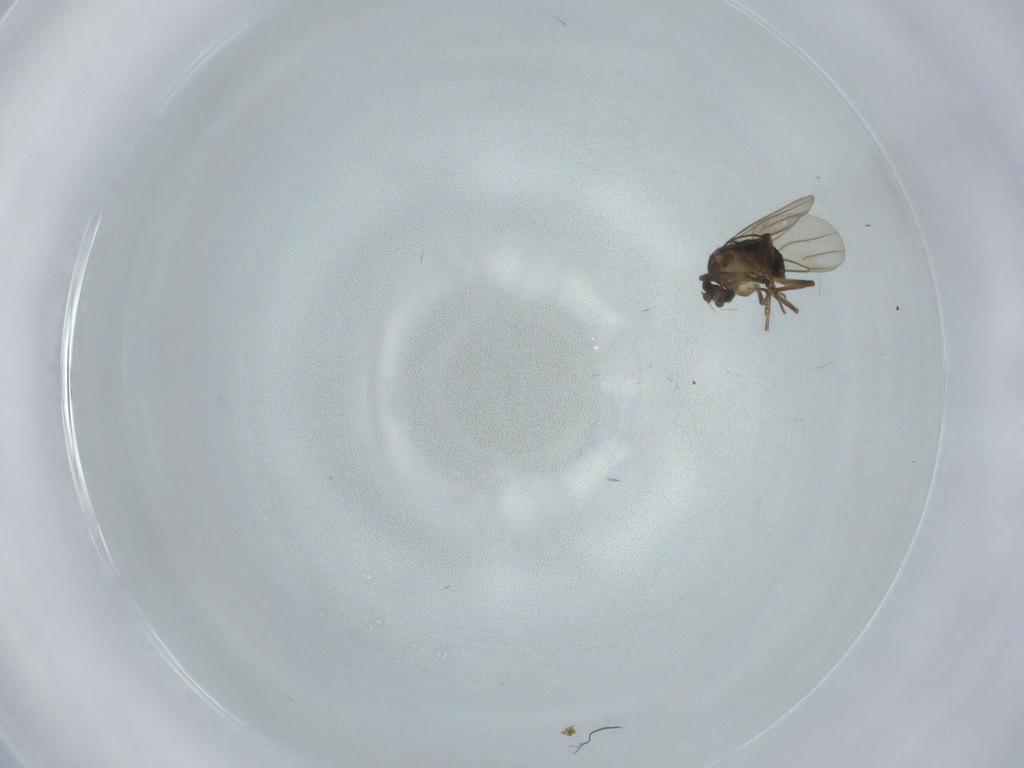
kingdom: Animalia
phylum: Arthropoda
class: Insecta
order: Diptera
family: Phoridae
